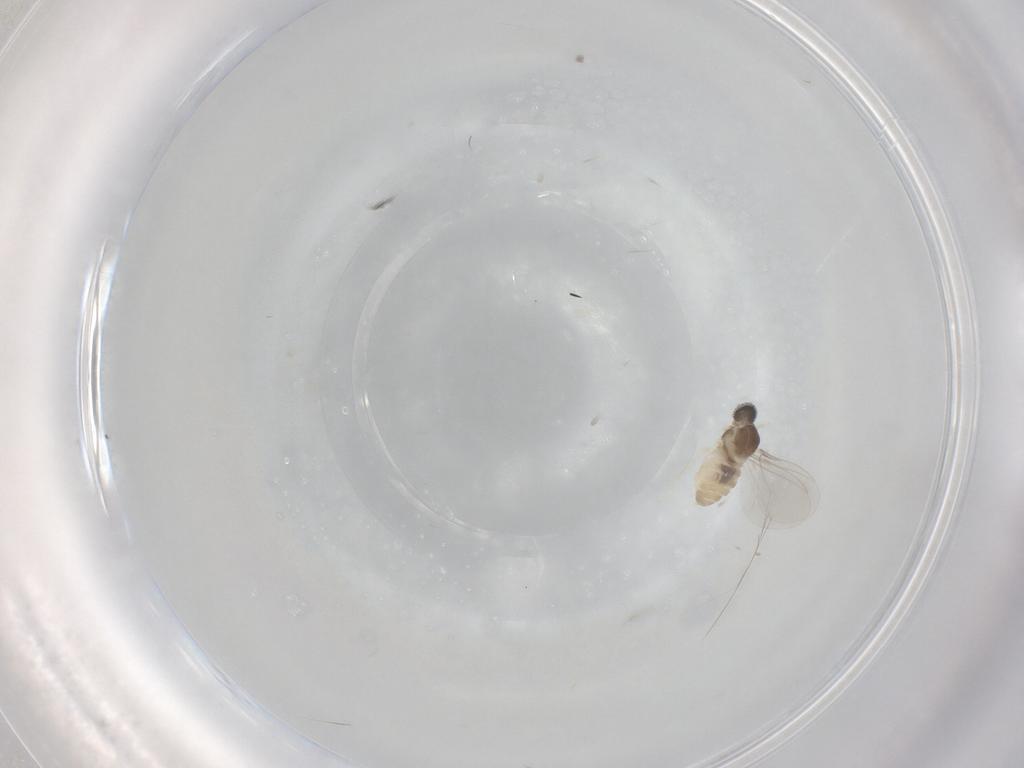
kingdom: Animalia
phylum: Arthropoda
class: Insecta
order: Diptera
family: Cecidomyiidae
